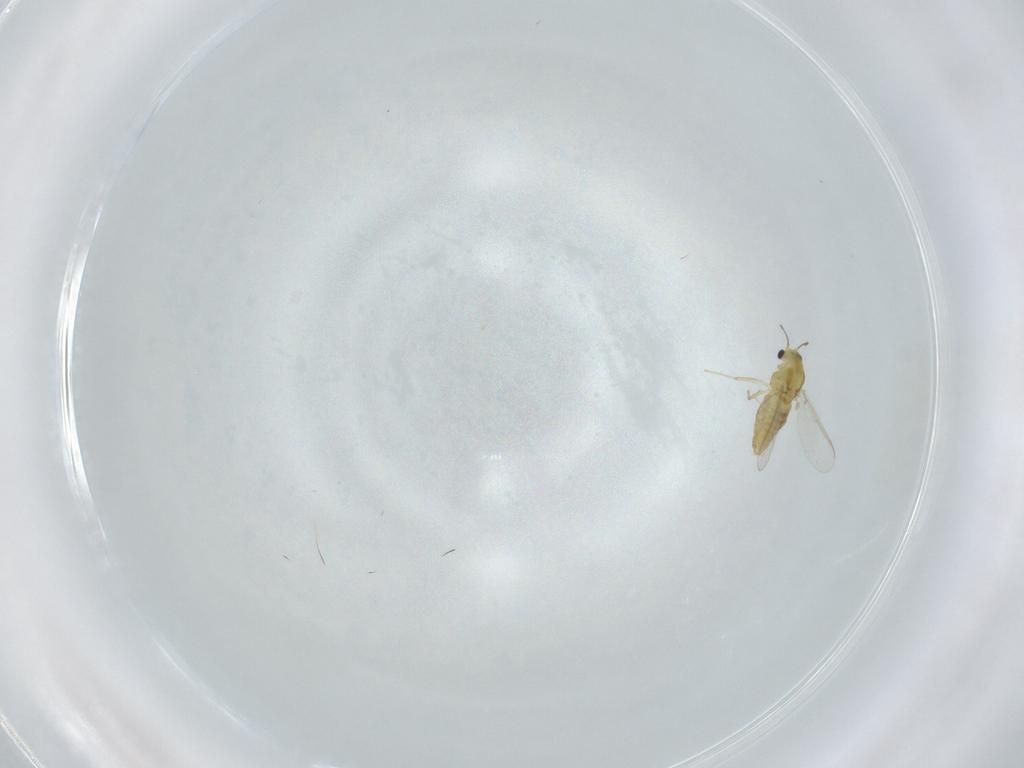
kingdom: Animalia
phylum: Arthropoda
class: Insecta
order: Diptera
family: Chironomidae
